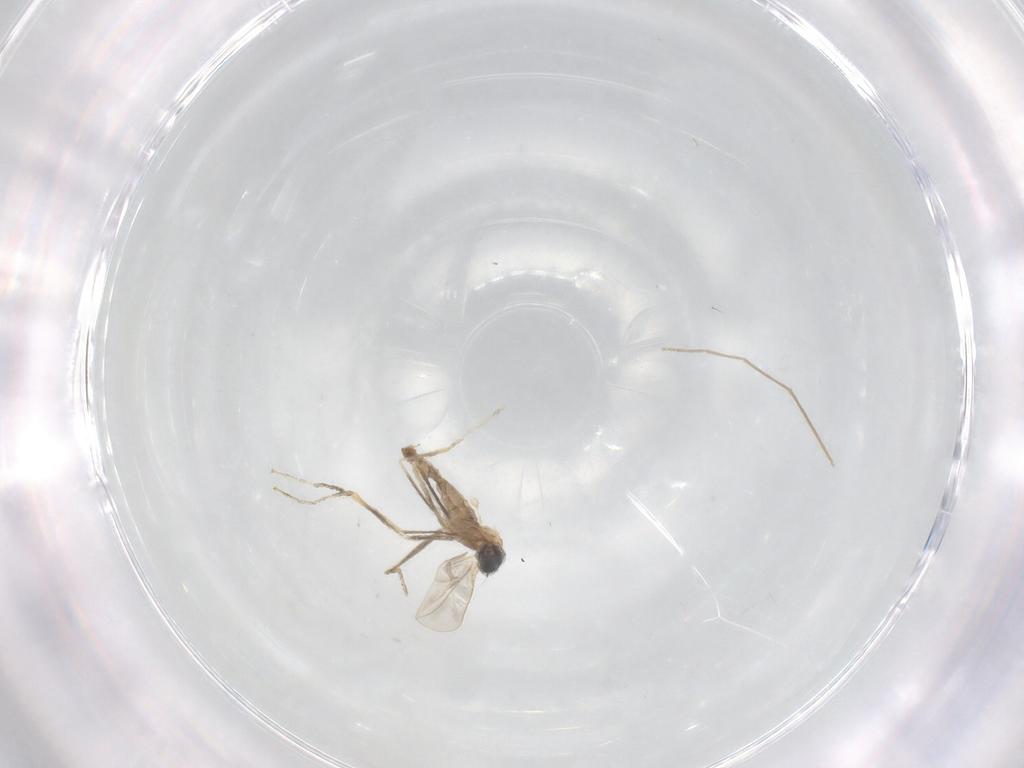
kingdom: Animalia
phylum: Arthropoda
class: Insecta
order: Diptera
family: Cecidomyiidae
